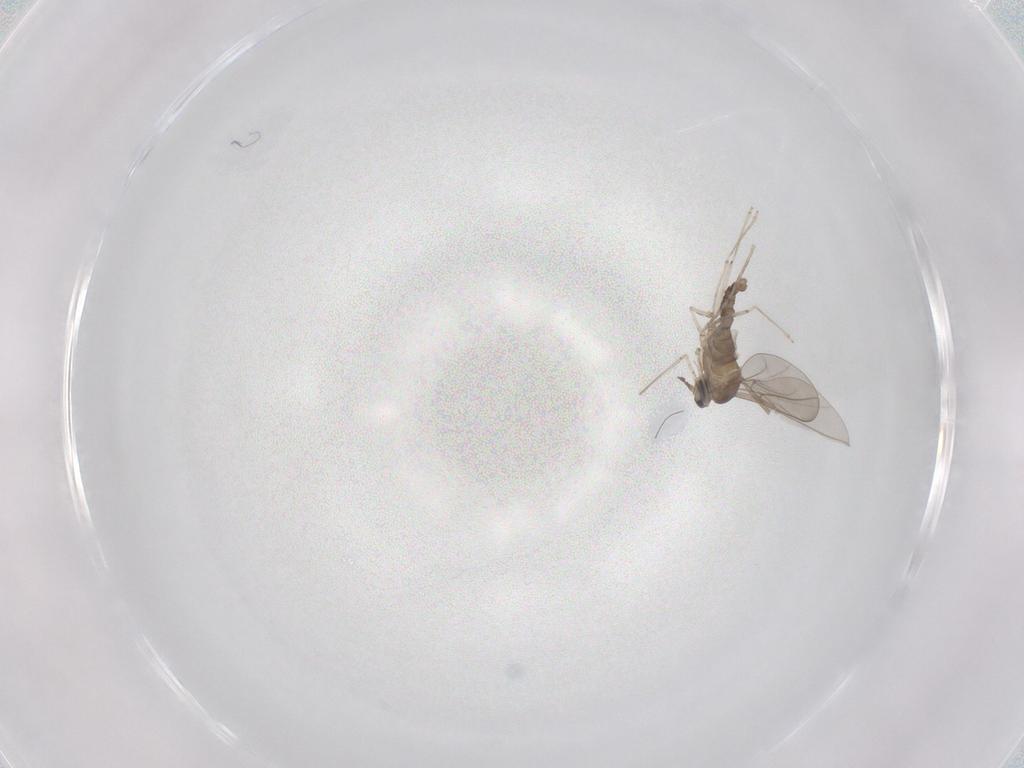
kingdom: Animalia
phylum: Arthropoda
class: Insecta
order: Diptera
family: Cecidomyiidae
